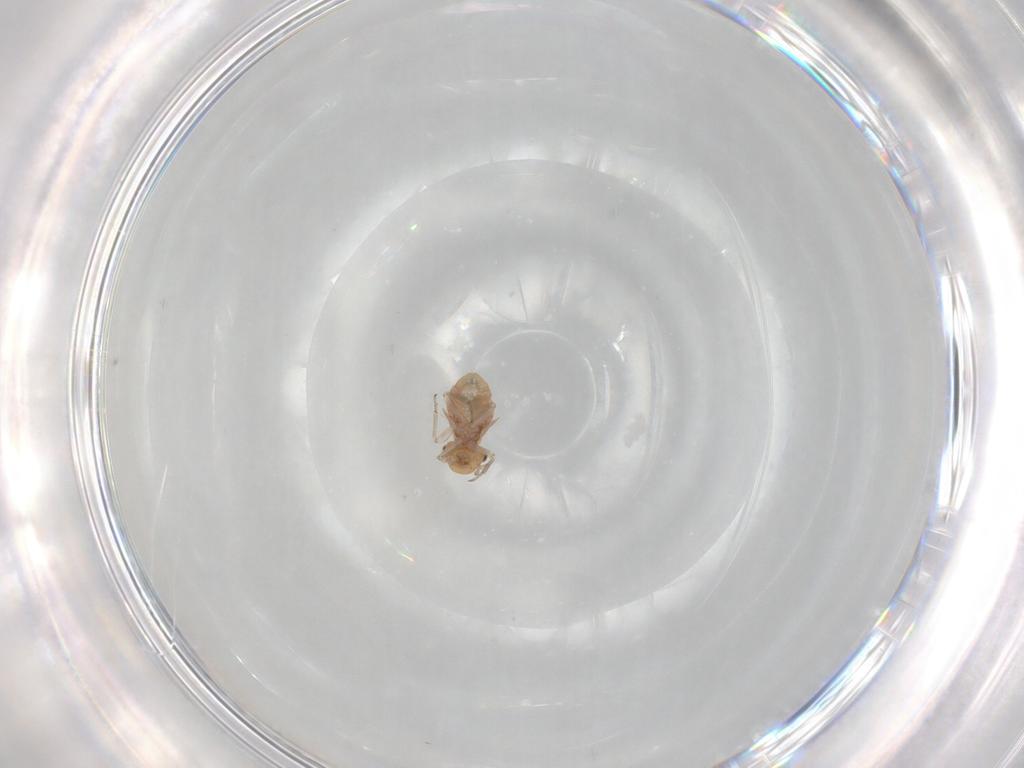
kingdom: Animalia
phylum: Arthropoda
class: Insecta
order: Psocodea
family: Lachesillidae
